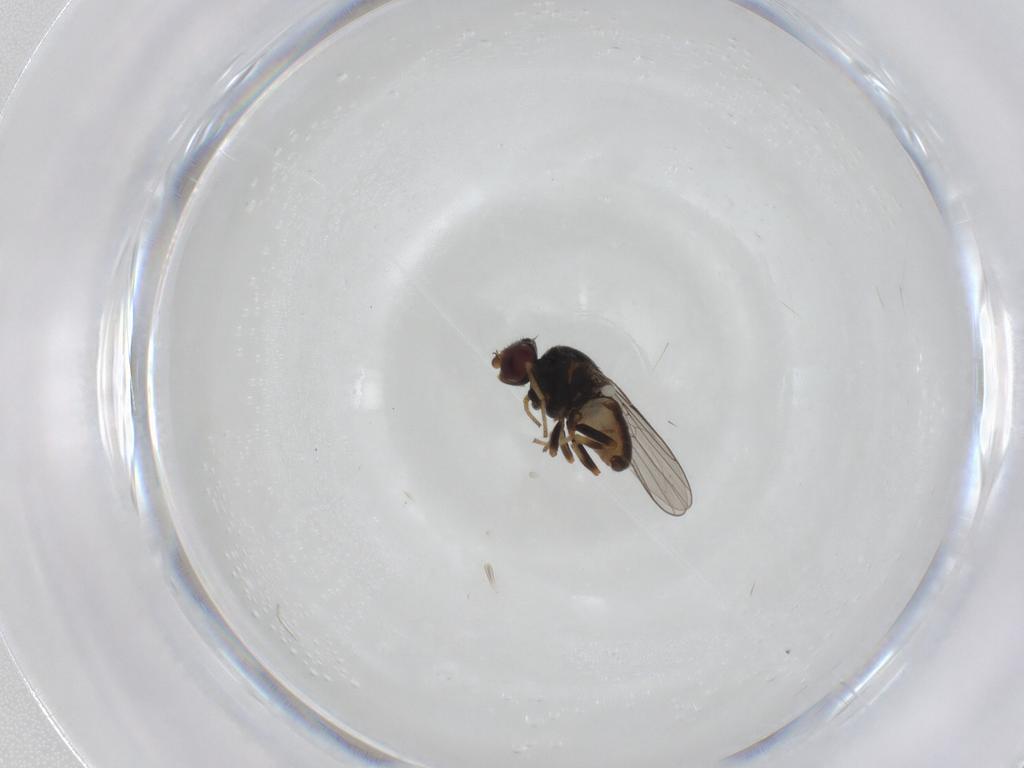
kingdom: Animalia
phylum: Arthropoda
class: Insecta
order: Diptera
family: Chloropidae
